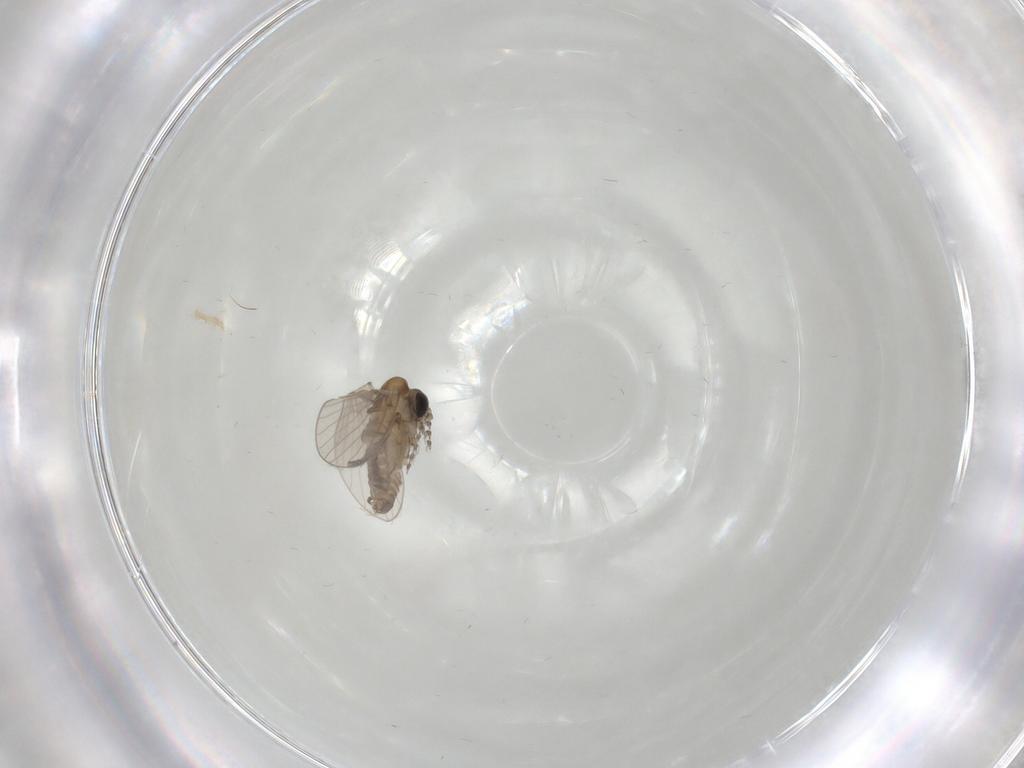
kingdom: Animalia
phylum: Arthropoda
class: Insecta
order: Diptera
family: Psychodidae
